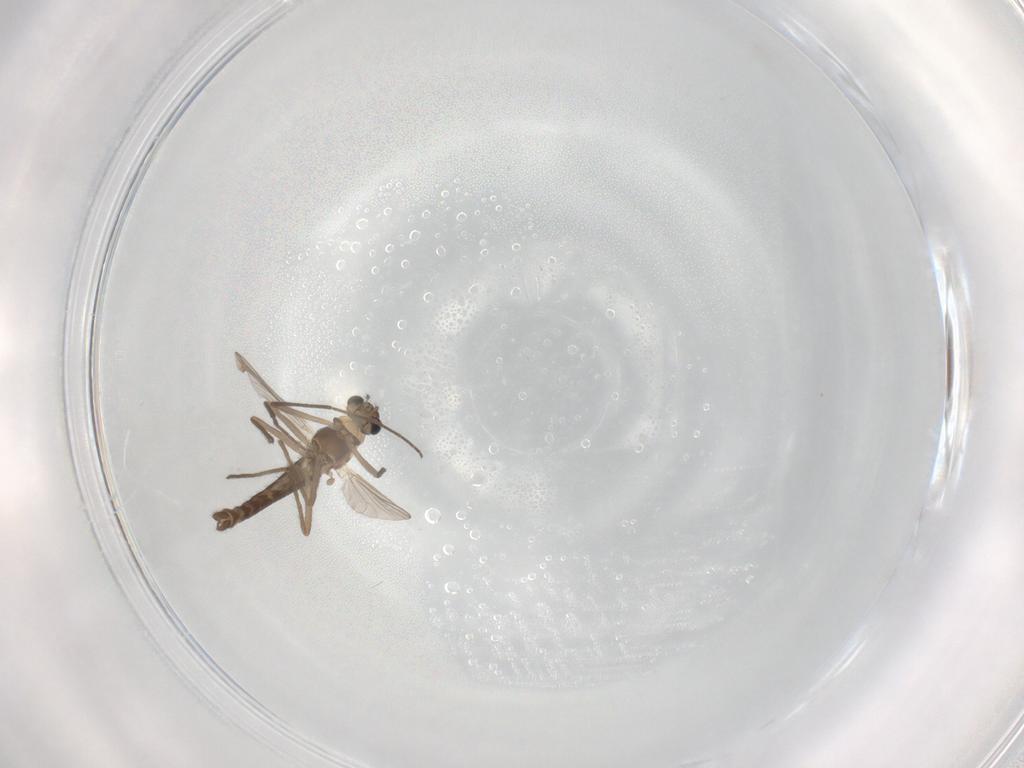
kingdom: Animalia
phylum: Arthropoda
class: Insecta
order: Diptera
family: Chironomidae
